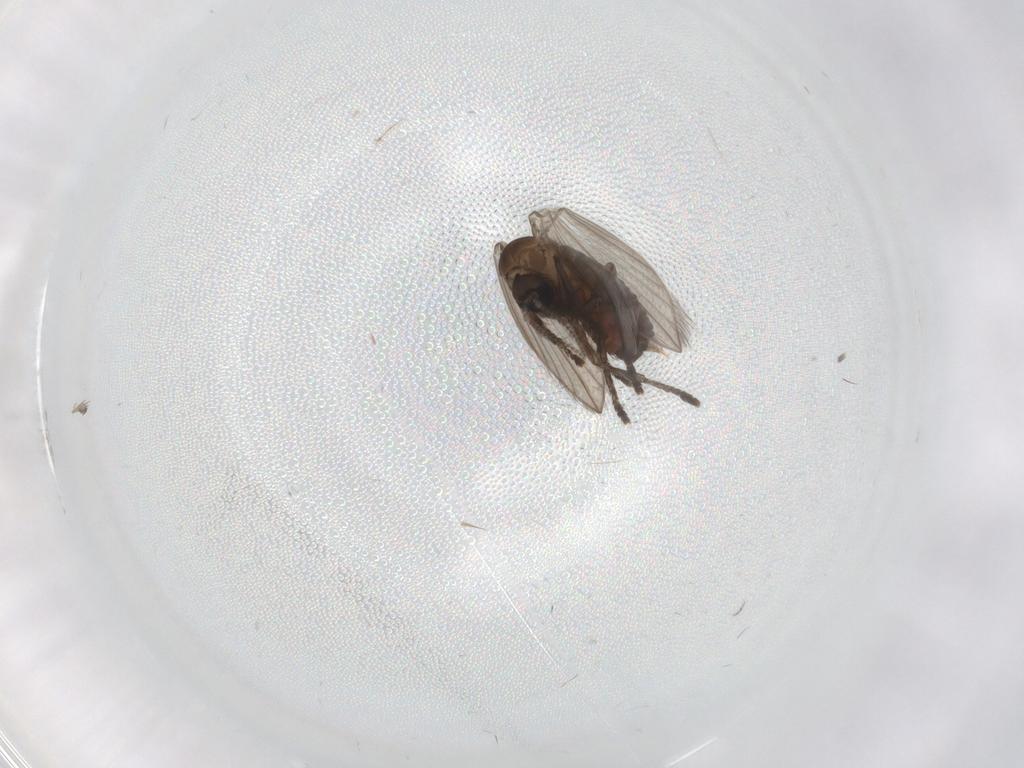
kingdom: Animalia
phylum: Arthropoda
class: Insecta
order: Diptera
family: Psychodidae
